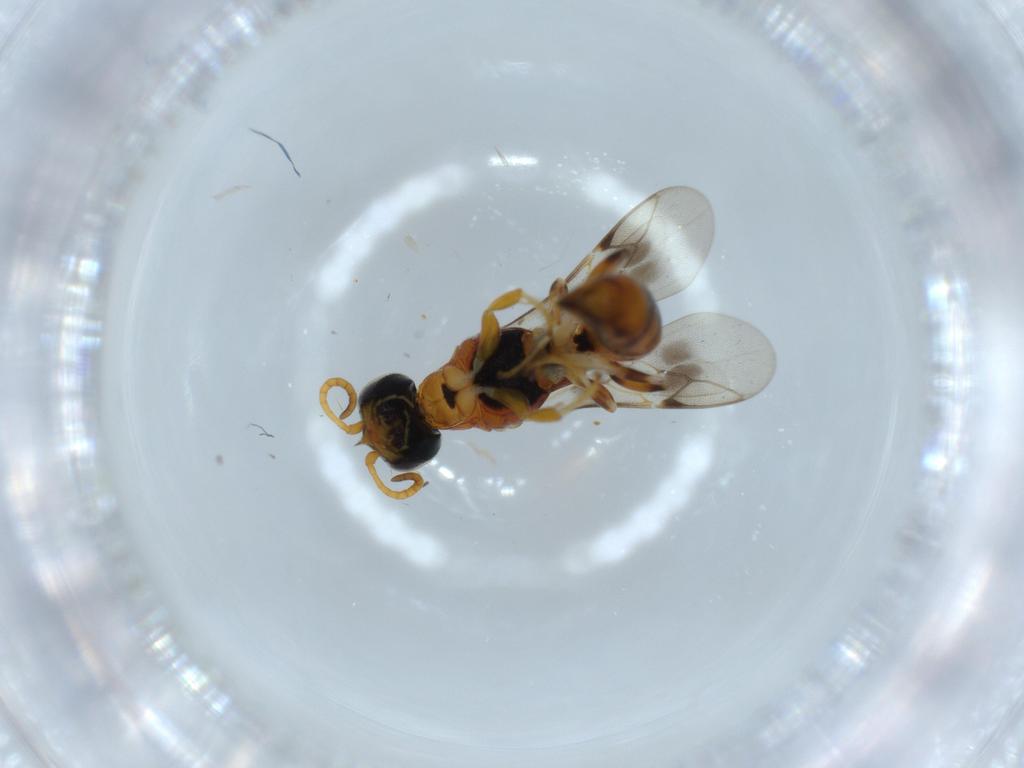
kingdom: Animalia
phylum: Arthropoda
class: Insecta
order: Hymenoptera
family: Crabronidae
